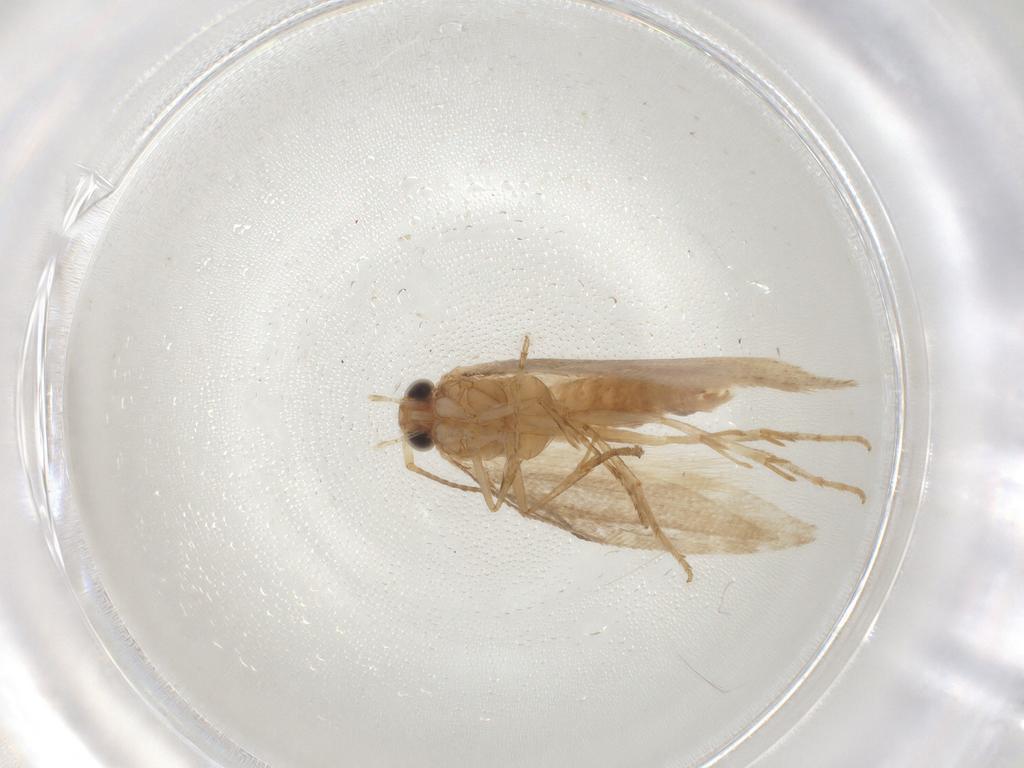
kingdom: Animalia
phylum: Arthropoda
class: Insecta
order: Lepidoptera
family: Argyresthiidae
